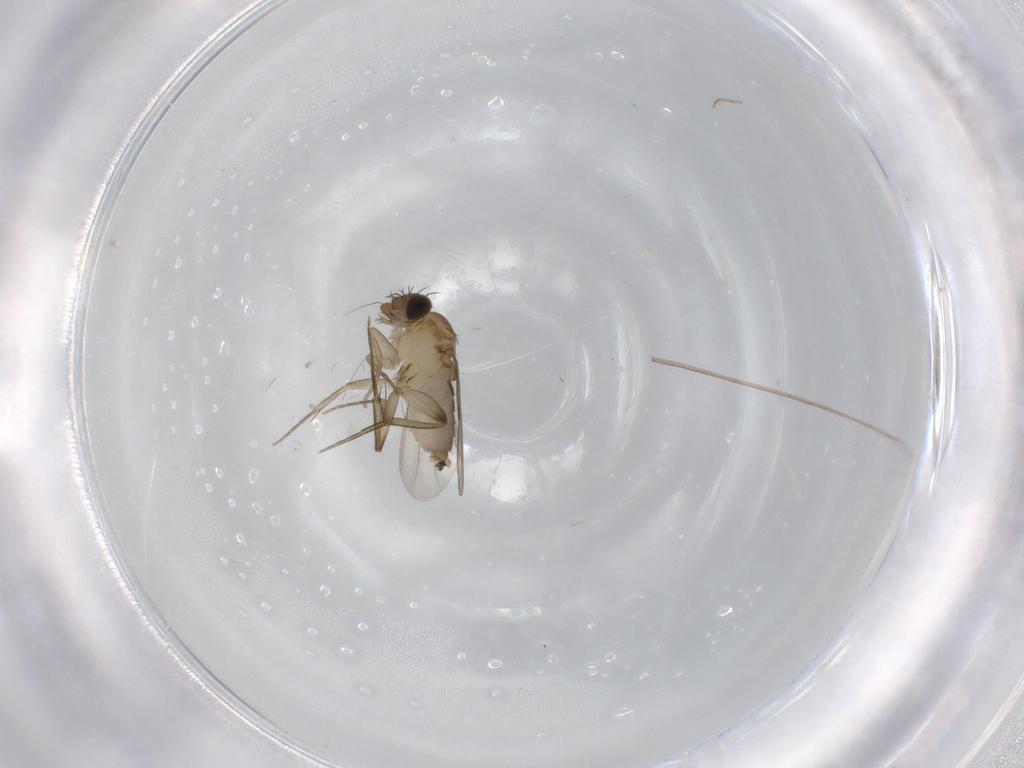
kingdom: Animalia
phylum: Arthropoda
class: Insecta
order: Diptera
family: Phoridae
